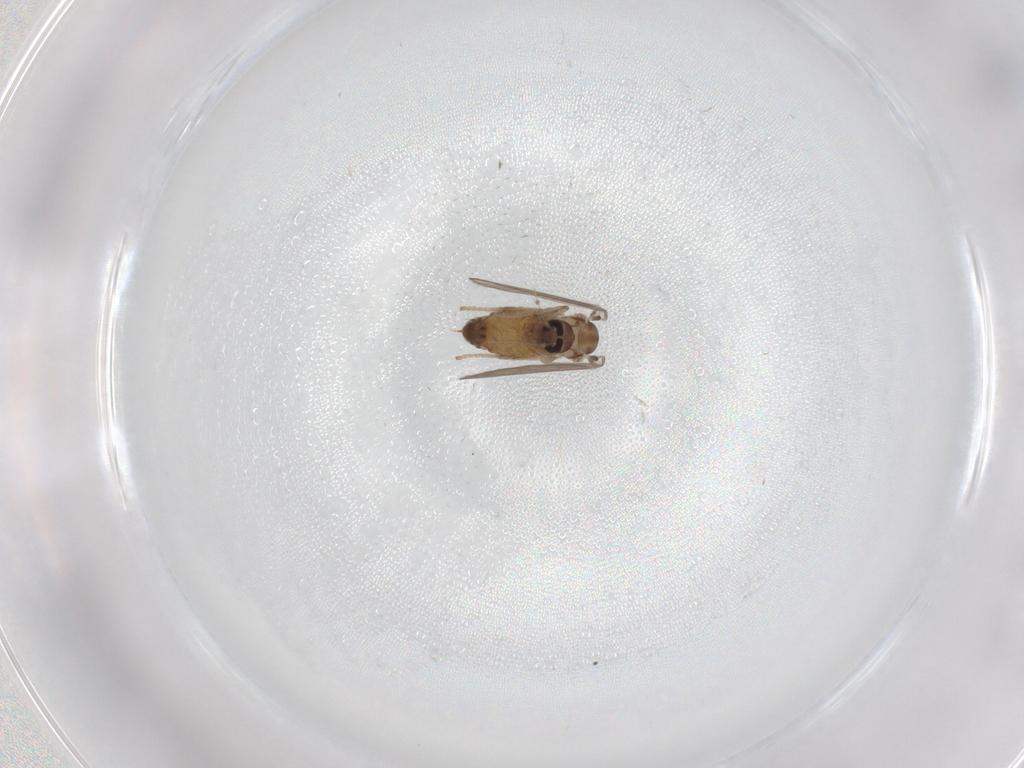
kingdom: Animalia
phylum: Arthropoda
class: Insecta
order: Diptera
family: Psychodidae
